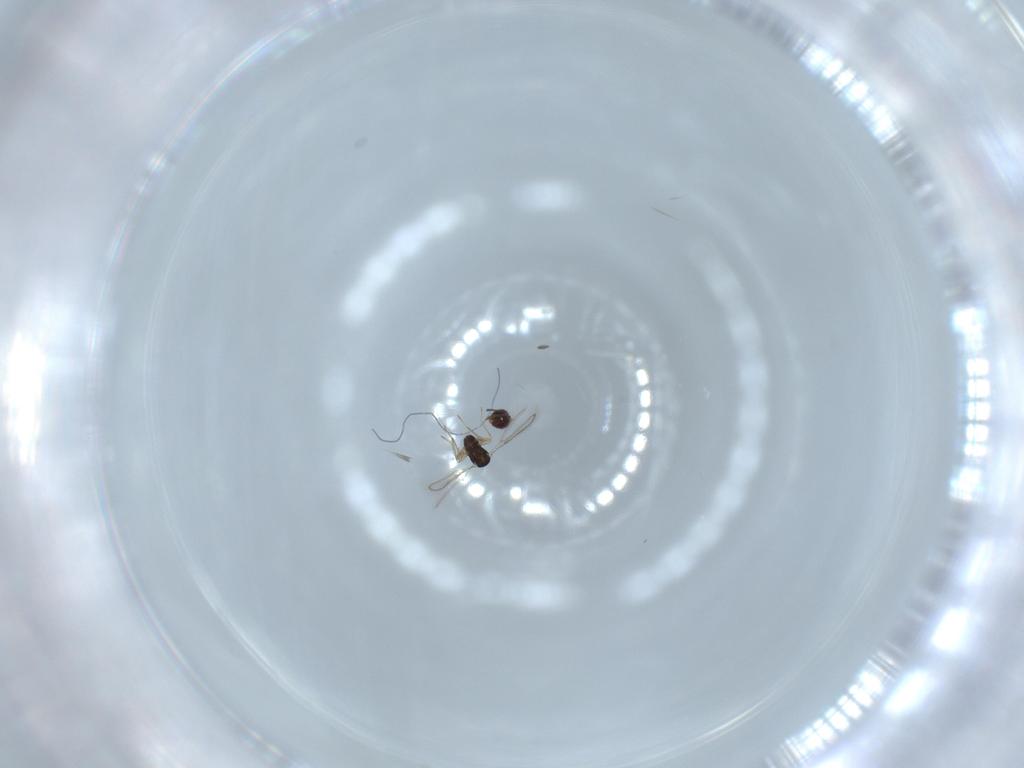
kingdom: Animalia
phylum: Arthropoda
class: Insecta
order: Hymenoptera
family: Mymaridae
